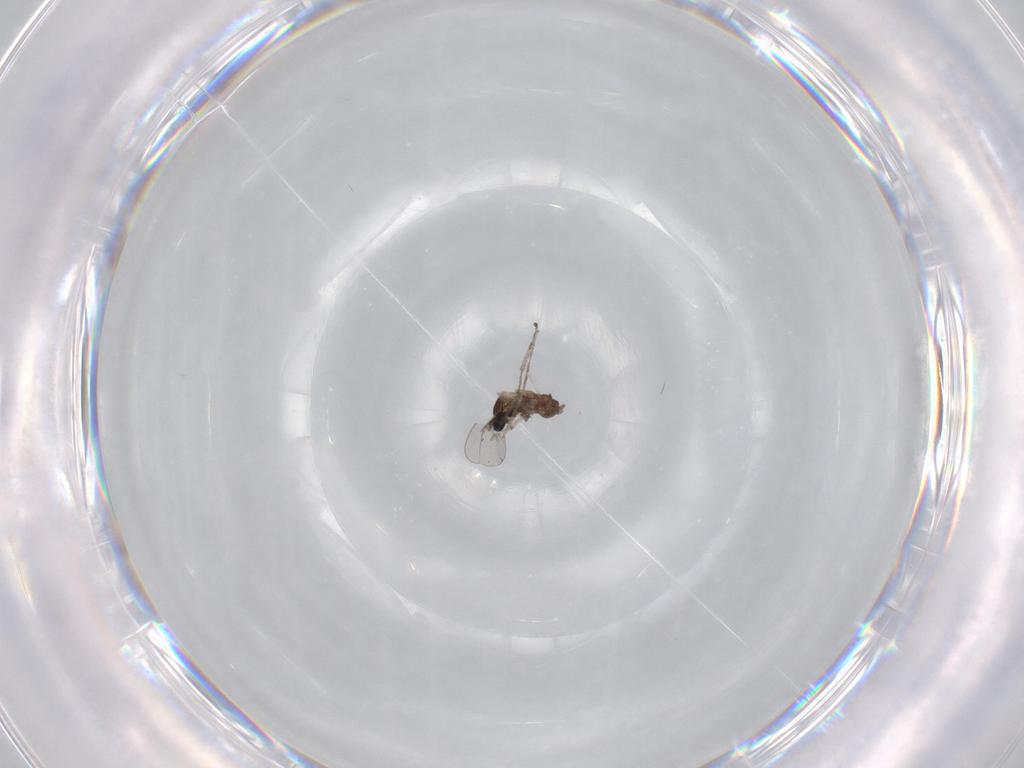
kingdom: Animalia
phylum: Arthropoda
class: Insecta
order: Diptera
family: Cecidomyiidae
